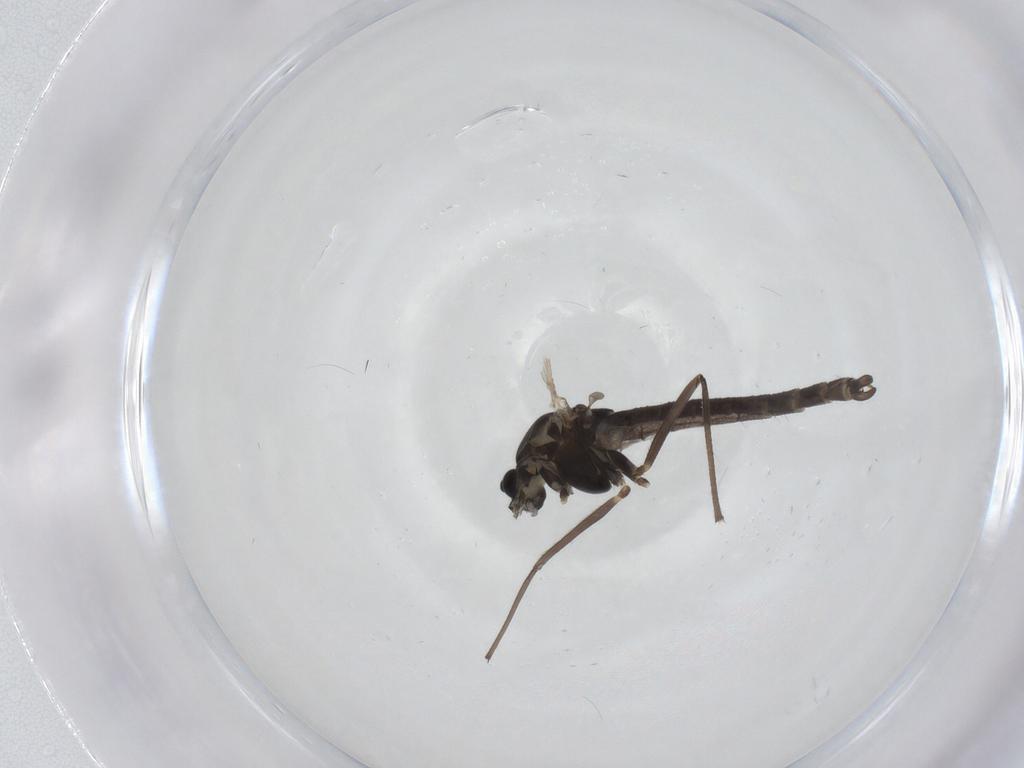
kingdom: Animalia
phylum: Arthropoda
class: Insecta
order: Diptera
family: Chironomidae
